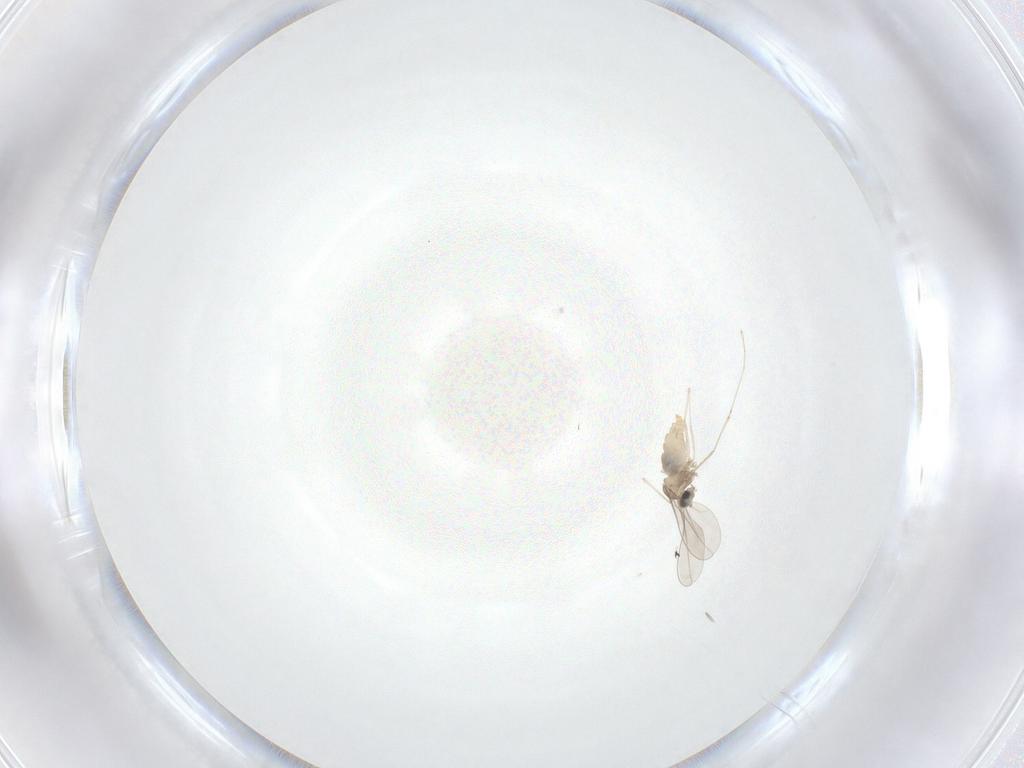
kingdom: Animalia
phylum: Arthropoda
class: Insecta
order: Diptera
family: Cecidomyiidae
